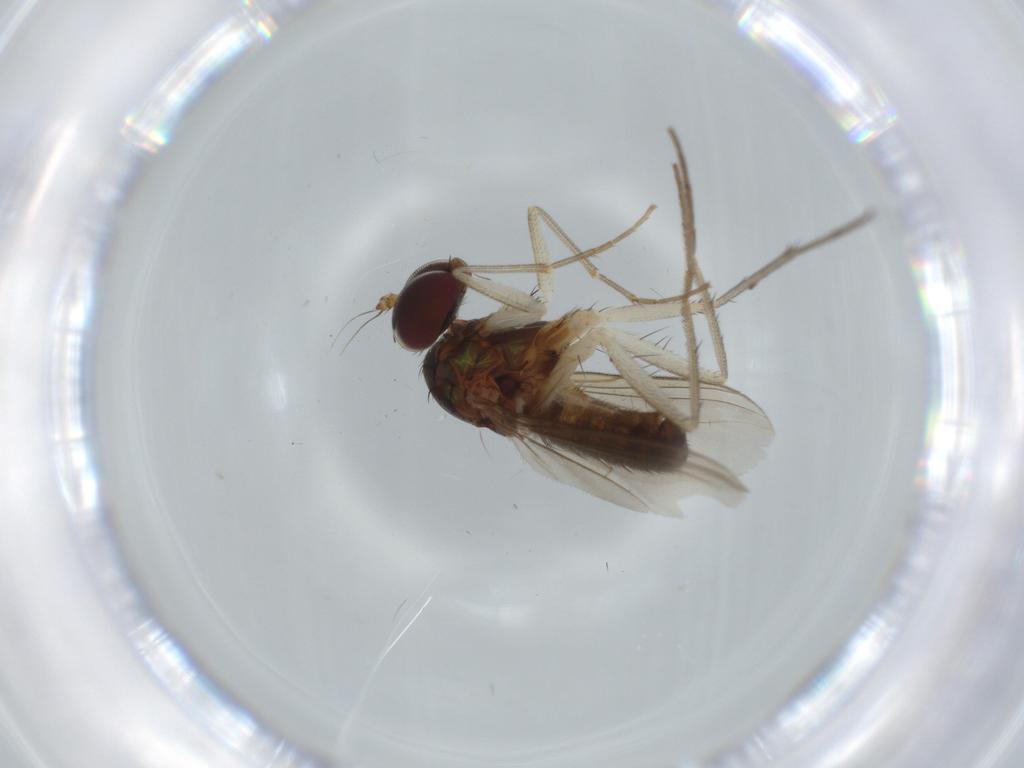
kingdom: Animalia
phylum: Arthropoda
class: Insecta
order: Diptera
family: Dolichopodidae
